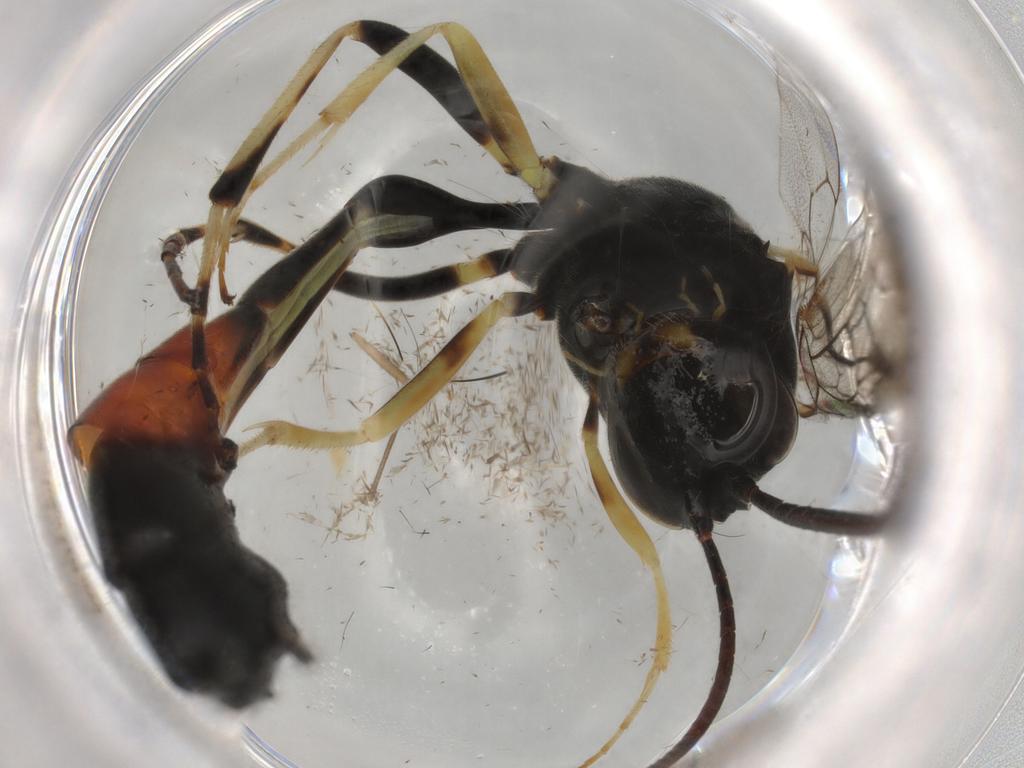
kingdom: Animalia
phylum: Arthropoda
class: Insecta
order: Hymenoptera
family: Ichneumonidae
